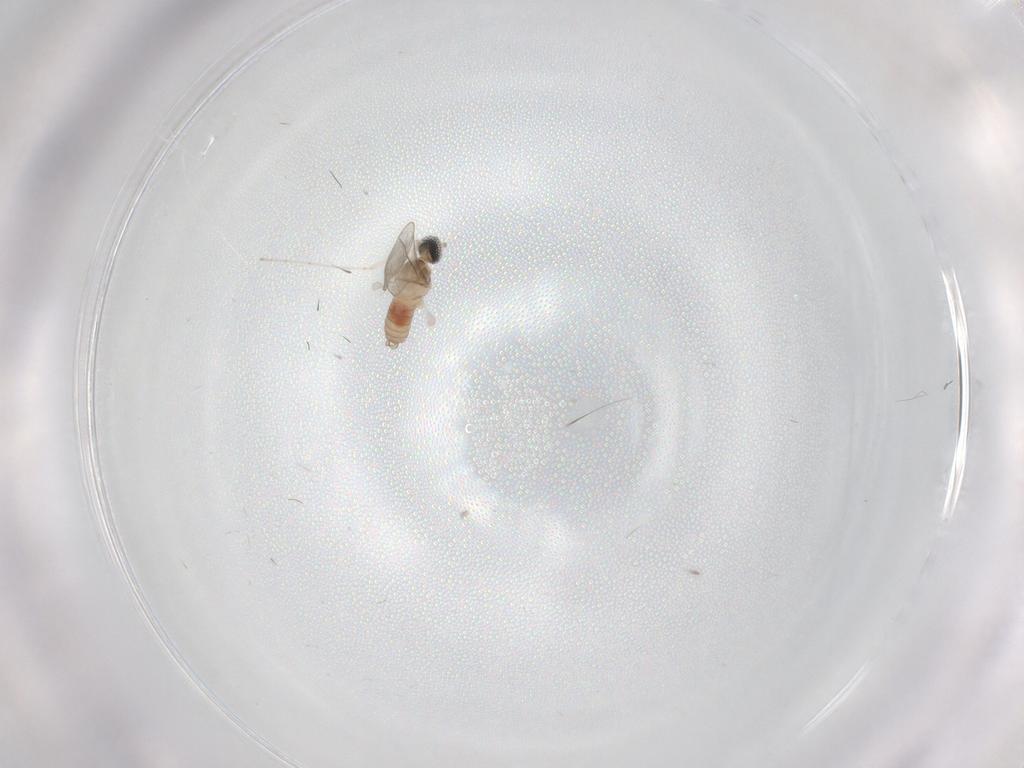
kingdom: Animalia
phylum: Arthropoda
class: Insecta
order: Diptera
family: Cecidomyiidae
